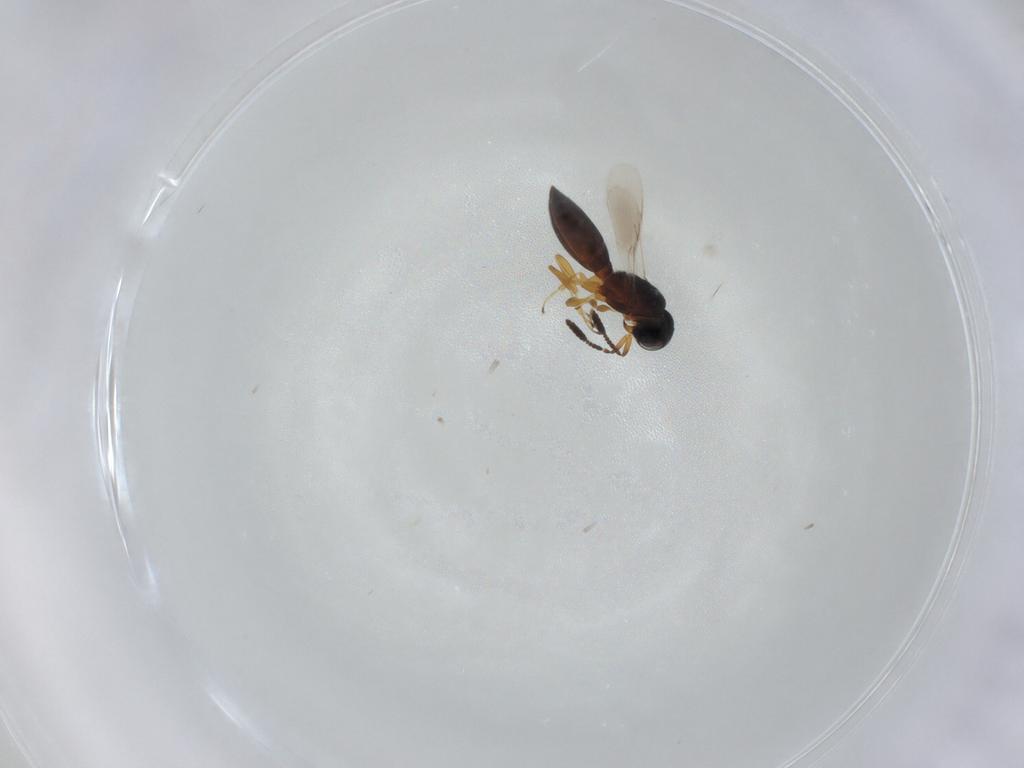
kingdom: Animalia
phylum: Arthropoda
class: Insecta
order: Hymenoptera
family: Scelionidae
